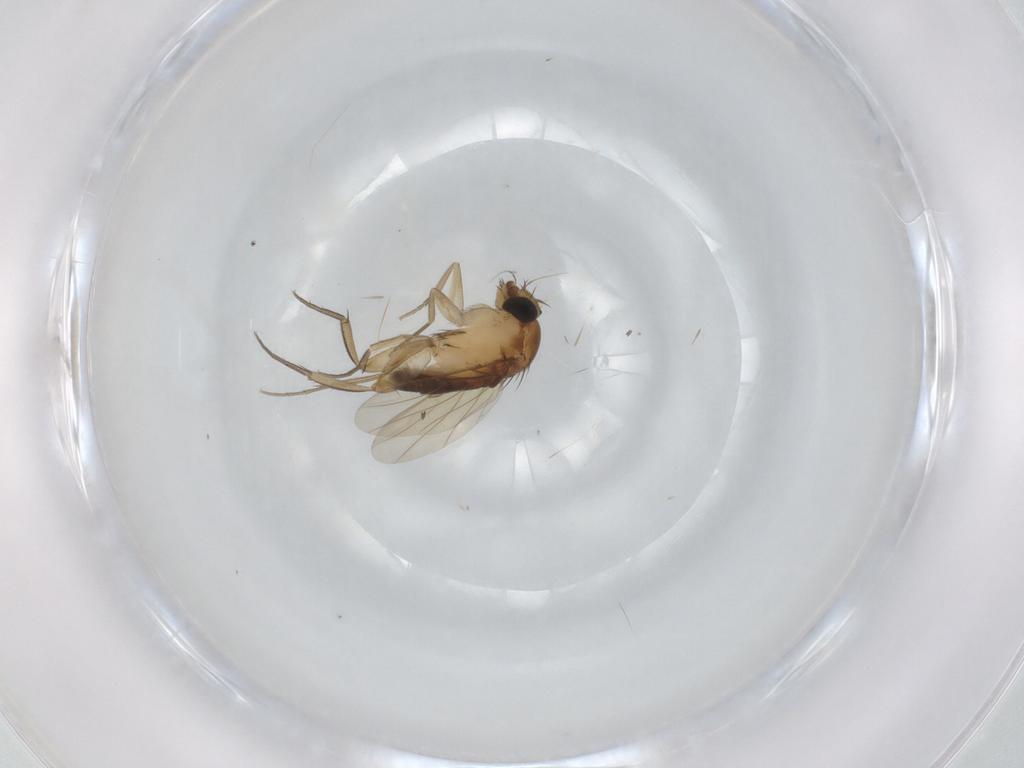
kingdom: Animalia
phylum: Arthropoda
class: Insecta
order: Diptera
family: Phoridae
